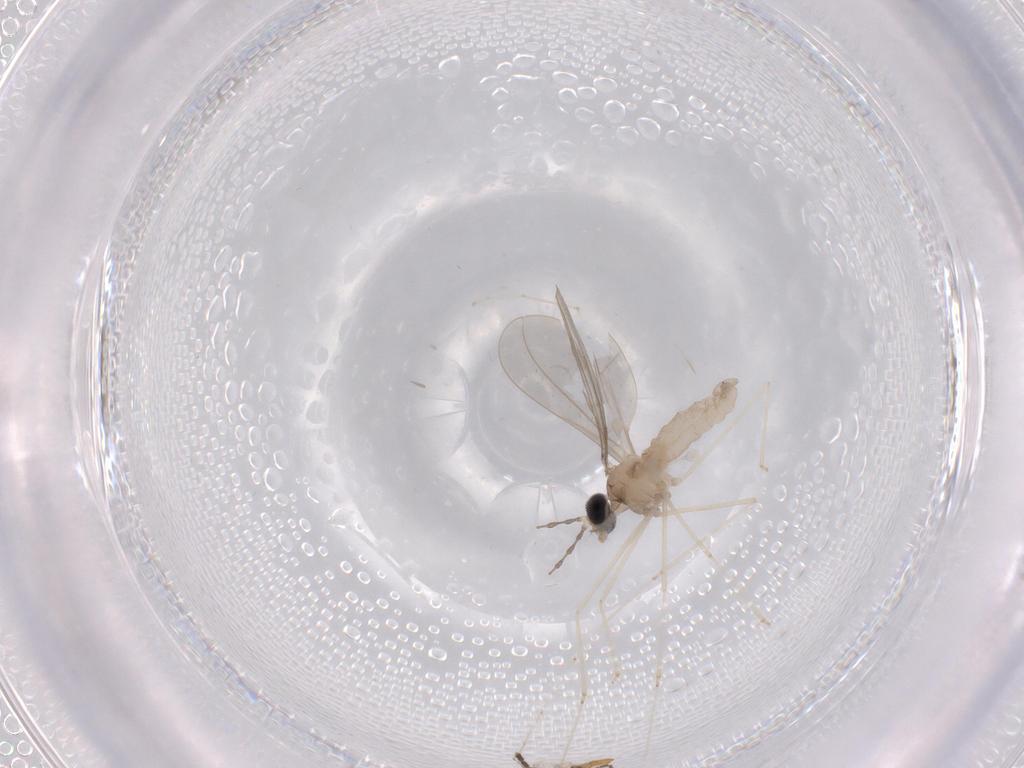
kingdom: Animalia
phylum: Arthropoda
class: Insecta
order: Diptera
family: Cecidomyiidae
